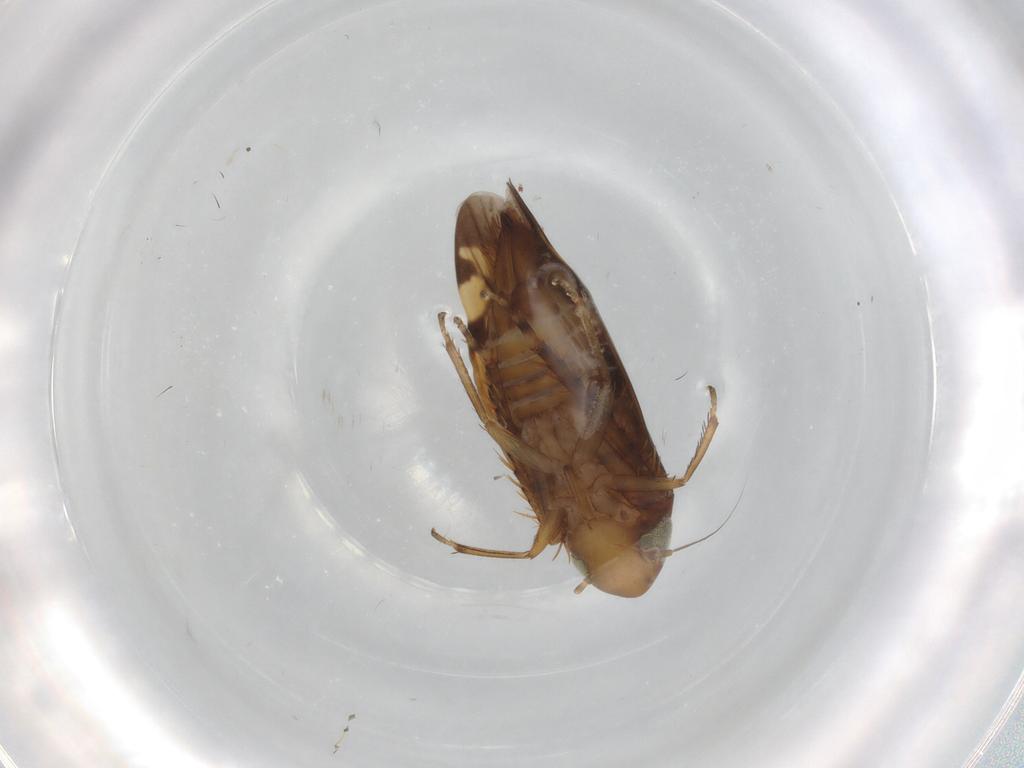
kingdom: Animalia
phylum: Arthropoda
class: Insecta
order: Hemiptera
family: Cicadellidae
